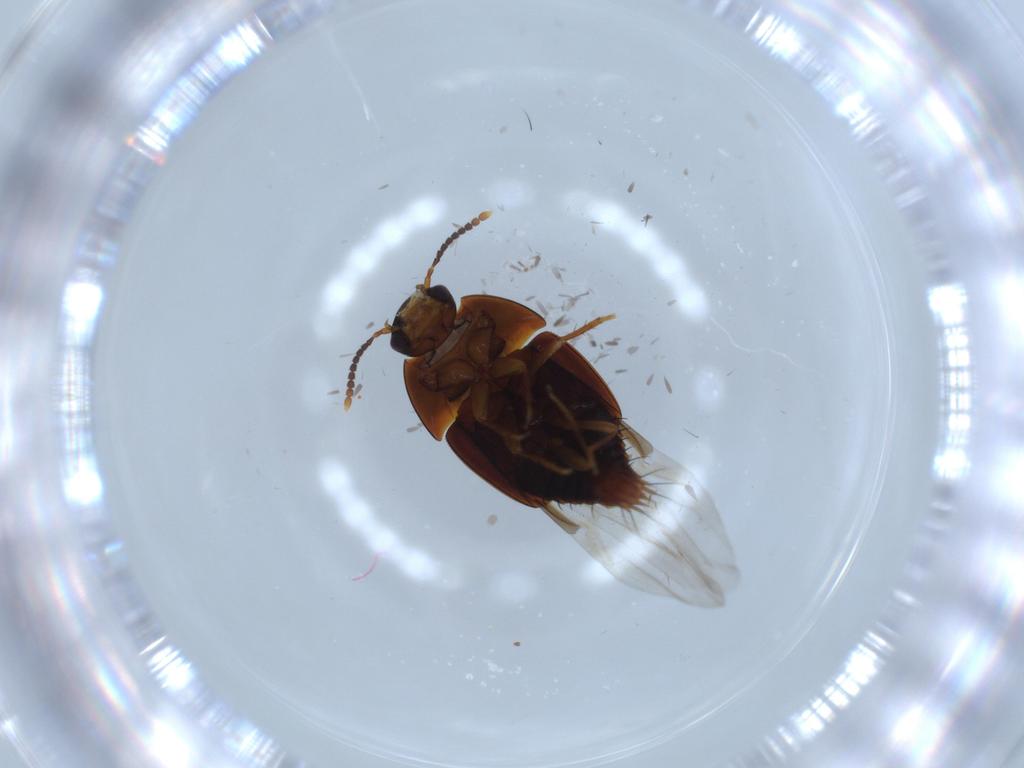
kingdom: Animalia
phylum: Arthropoda
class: Insecta
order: Coleoptera
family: Staphylinidae
